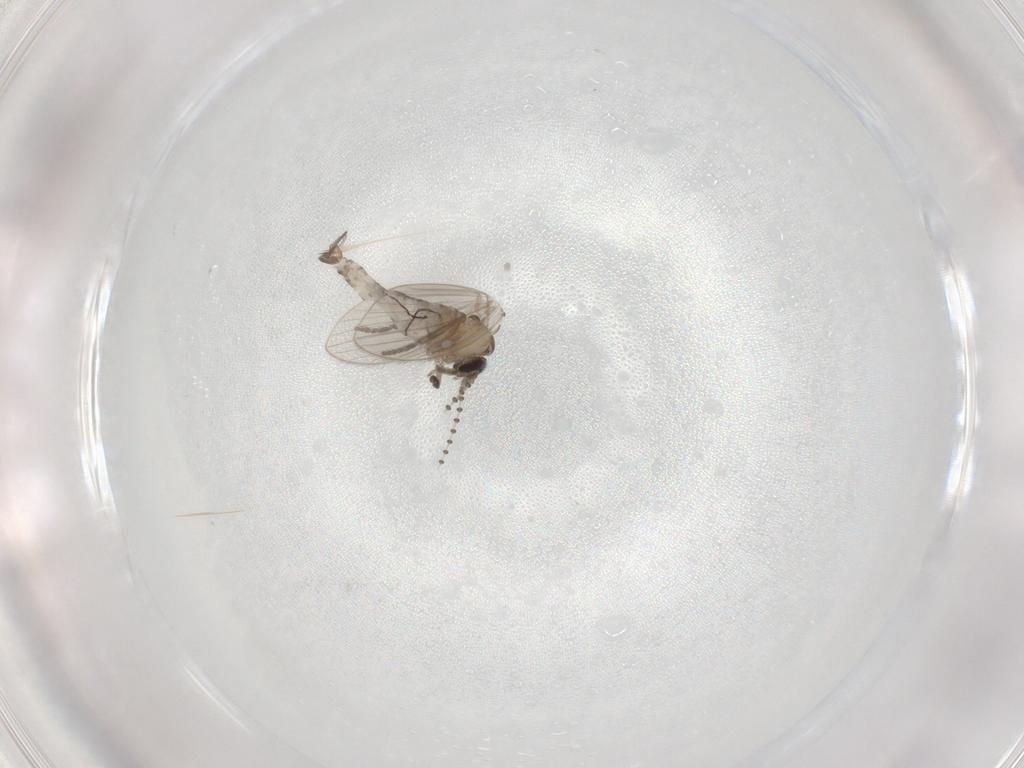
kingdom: Animalia
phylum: Arthropoda
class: Insecta
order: Diptera
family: Psychodidae
